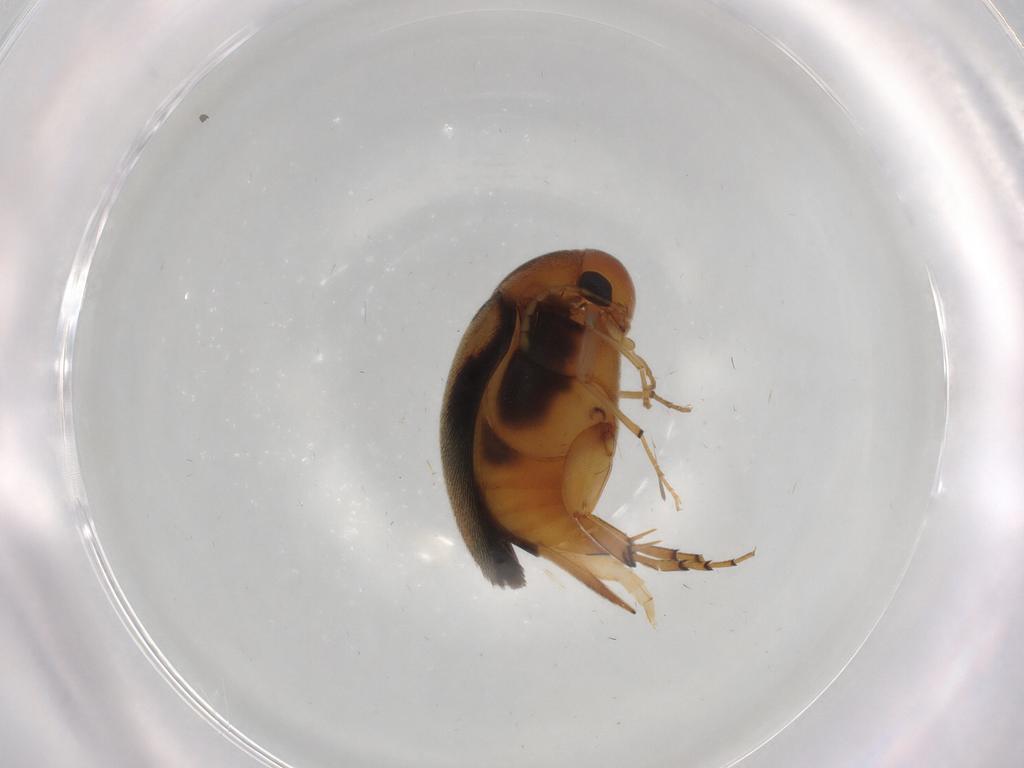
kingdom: Animalia
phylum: Arthropoda
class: Insecta
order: Coleoptera
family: Mordellidae
